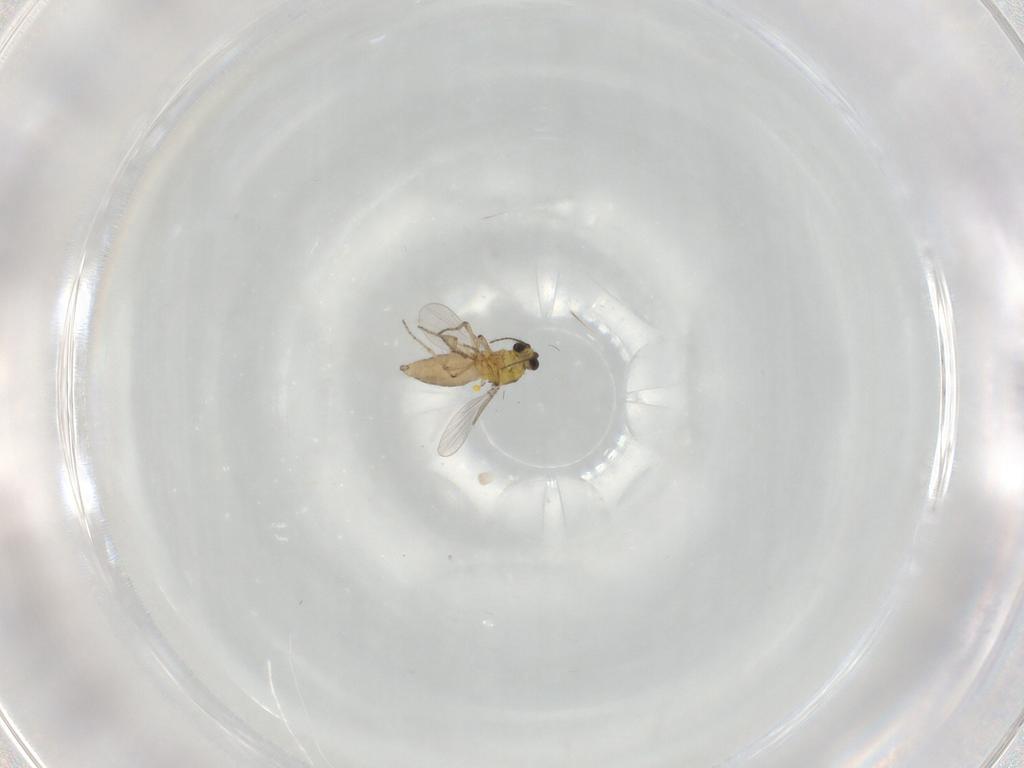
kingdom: Animalia
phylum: Arthropoda
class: Insecta
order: Diptera
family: Ceratopogonidae
